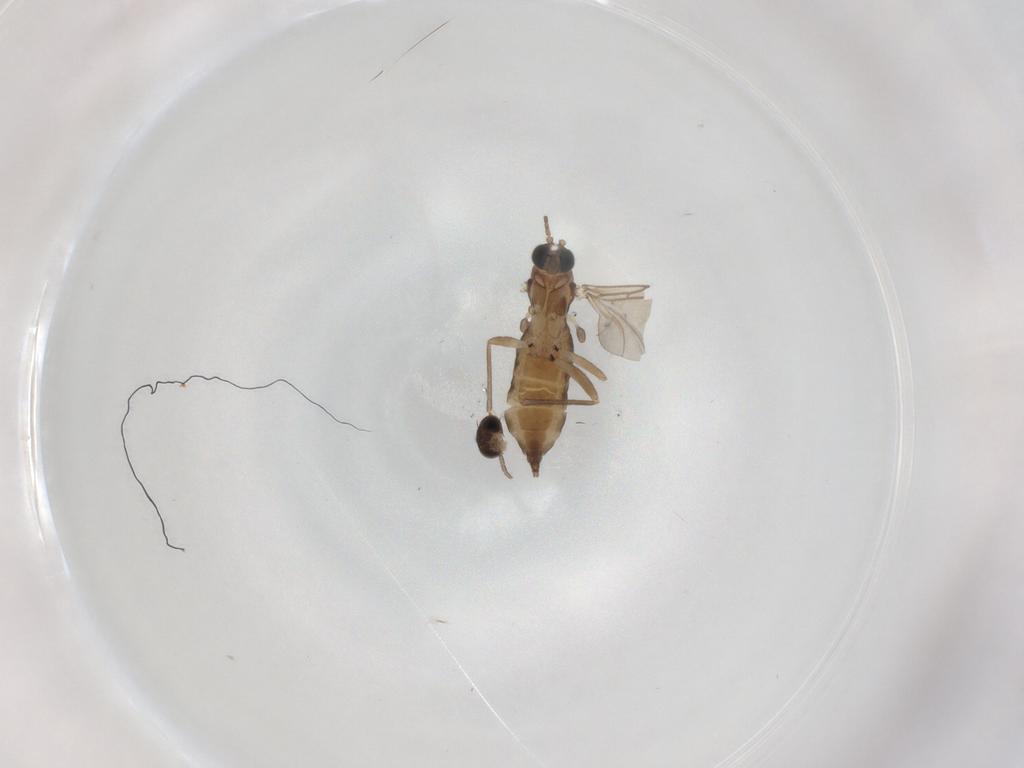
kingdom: Animalia
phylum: Arthropoda
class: Insecta
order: Diptera
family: Sciaridae
